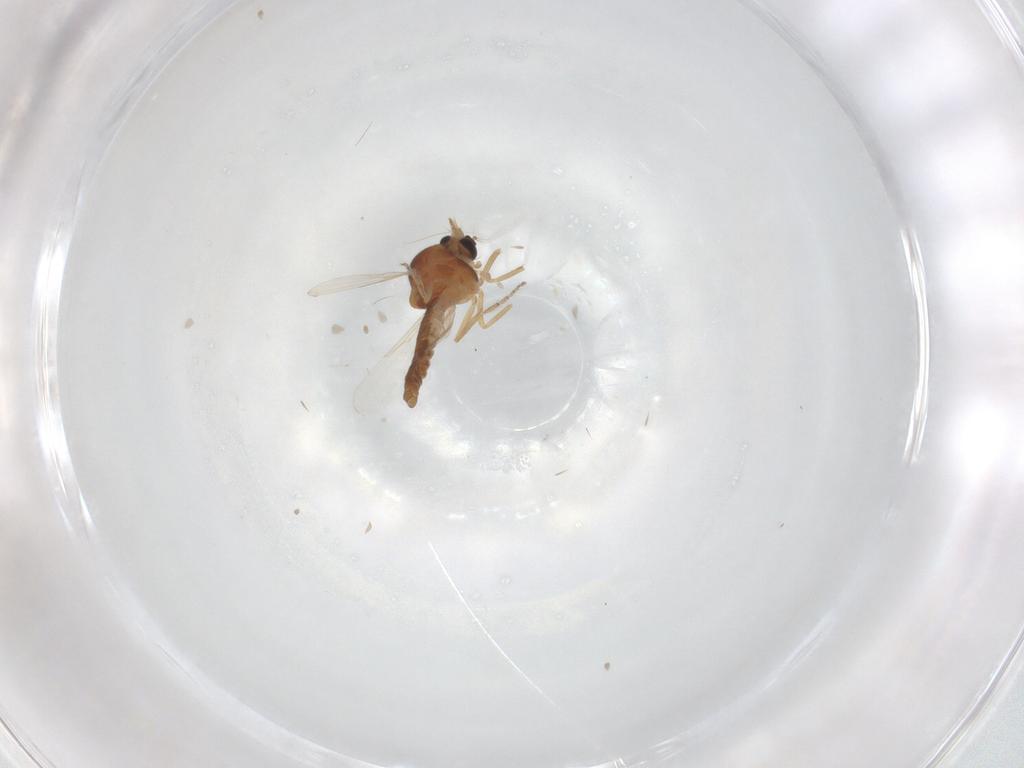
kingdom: Animalia
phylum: Arthropoda
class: Insecta
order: Diptera
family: Ceratopogonidae
